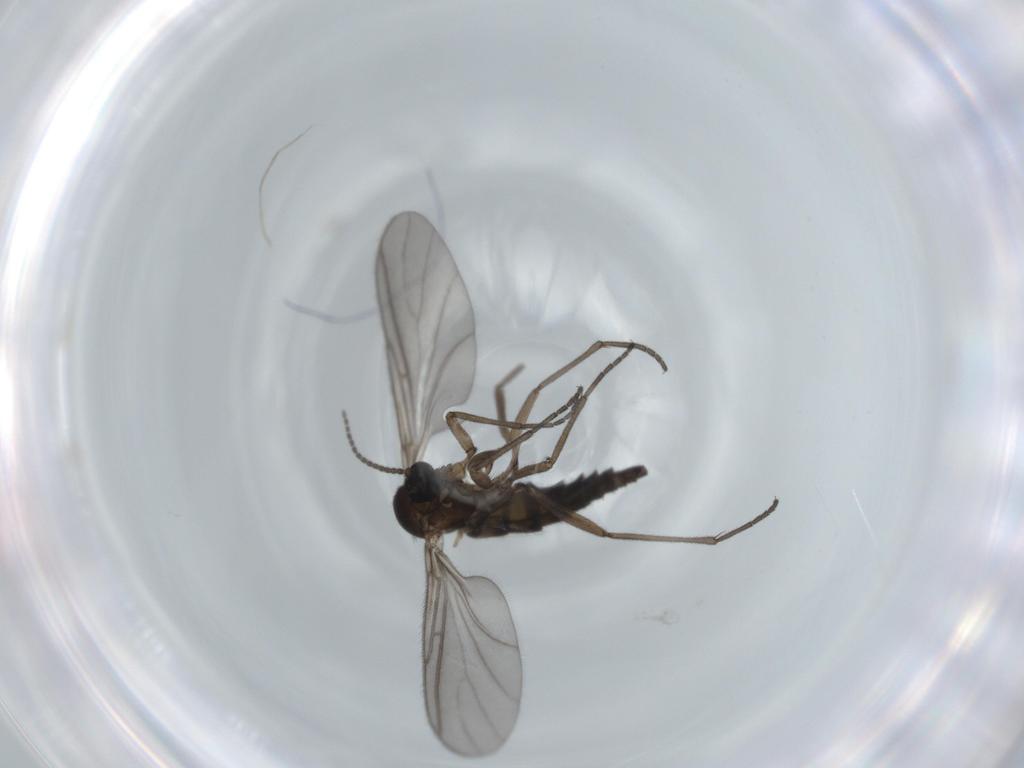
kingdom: Animalia
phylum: Arthropoda
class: Insecta
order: Diptera
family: Sciaridae
